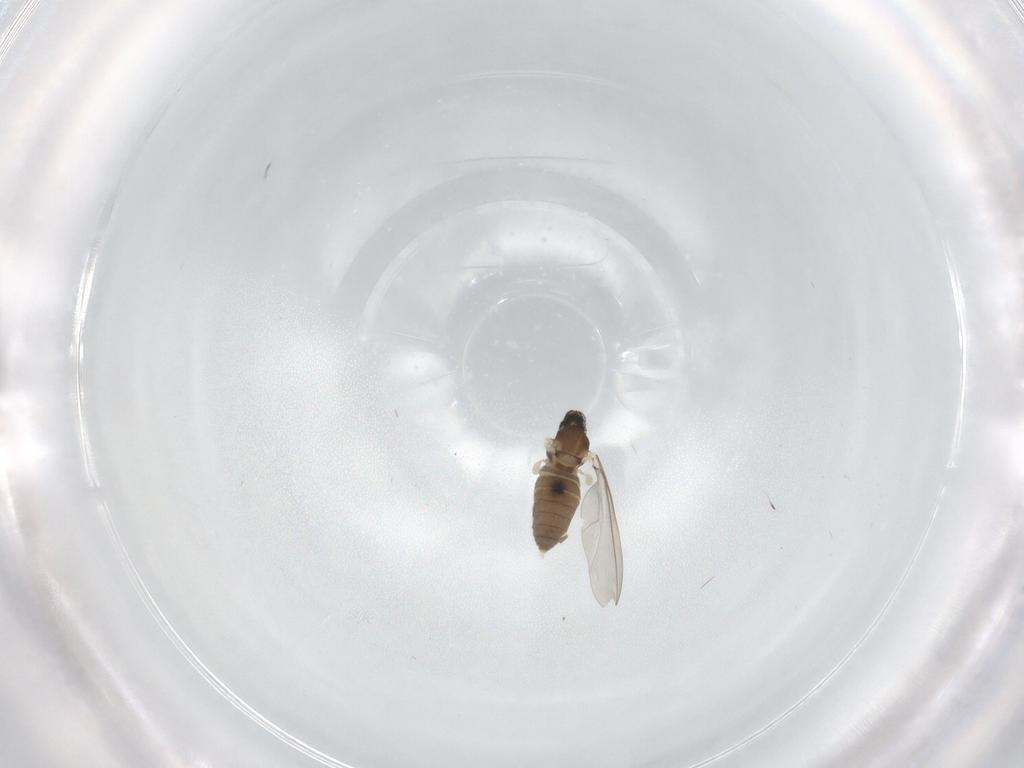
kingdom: Animalia
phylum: Arthropoda
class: Insecta
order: Diptera
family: Cecidomyiidae
